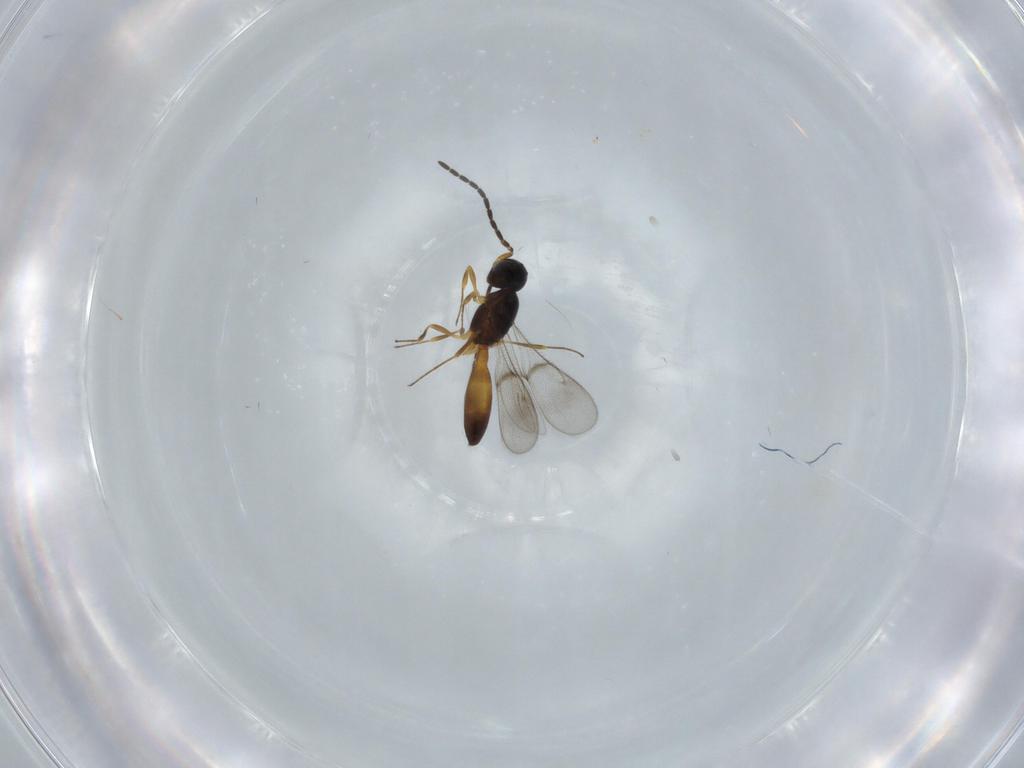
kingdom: Animalia
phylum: Arthropoda
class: Insecta
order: Hymenoptera
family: Scelionidae
